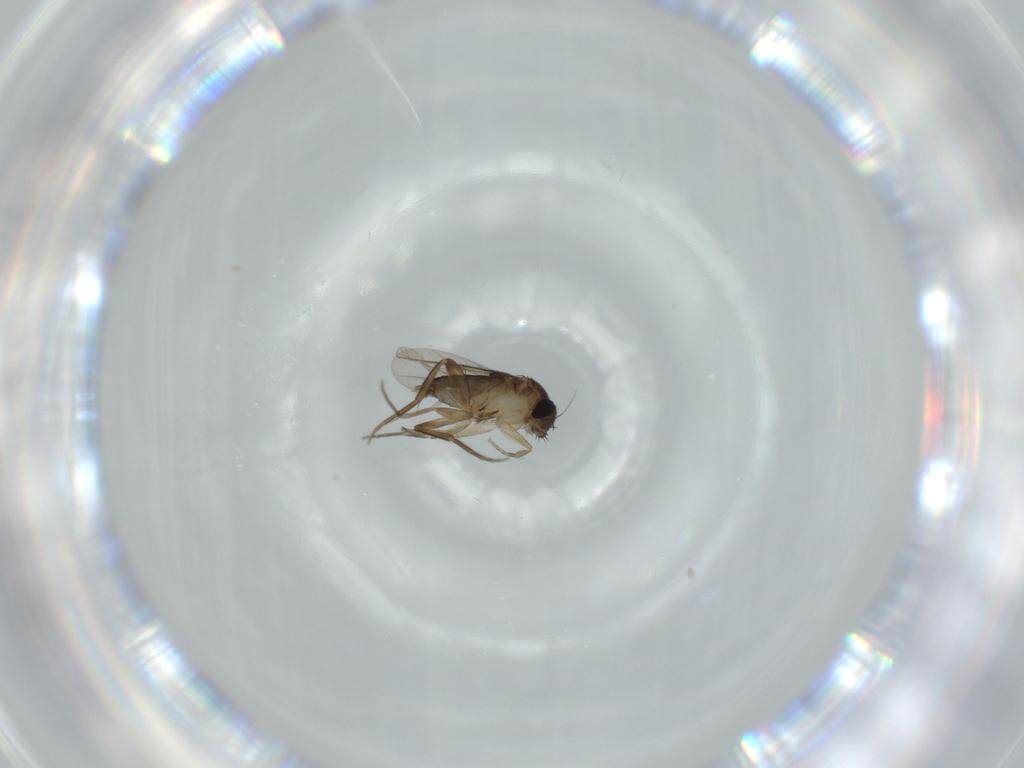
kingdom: Animalia
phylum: Arthropoda
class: Insecta
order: Diptera
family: Phoridae
